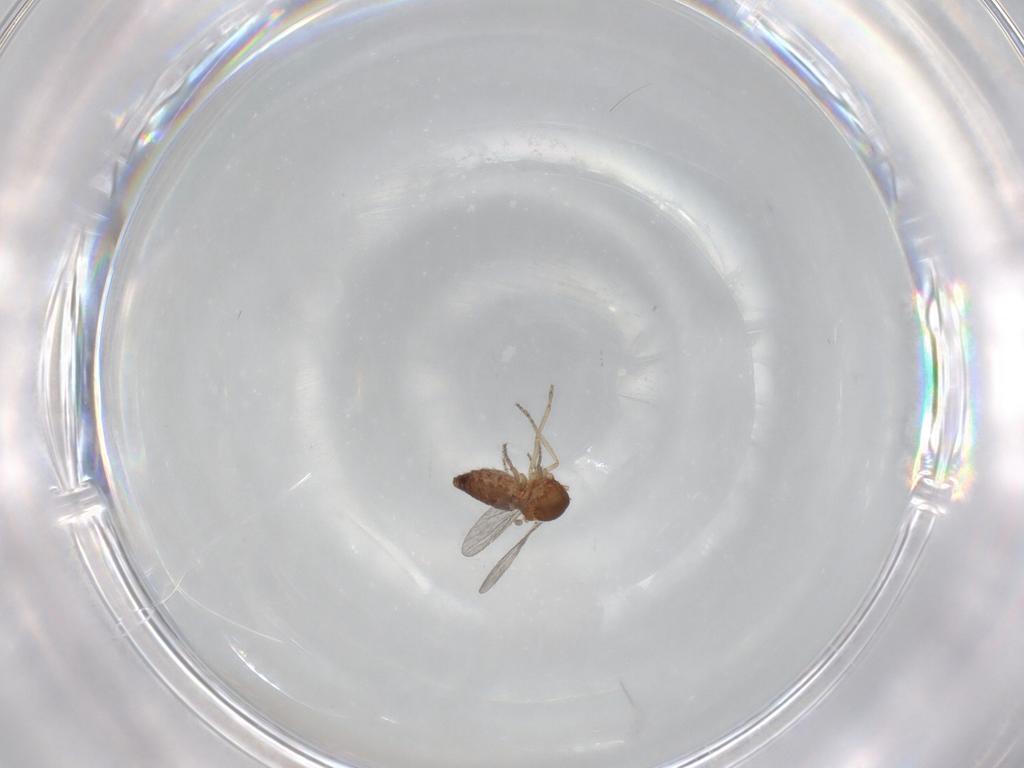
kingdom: Animalia
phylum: Arthropoda
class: Insecta
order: Diptera
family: Ceratopogonidae
